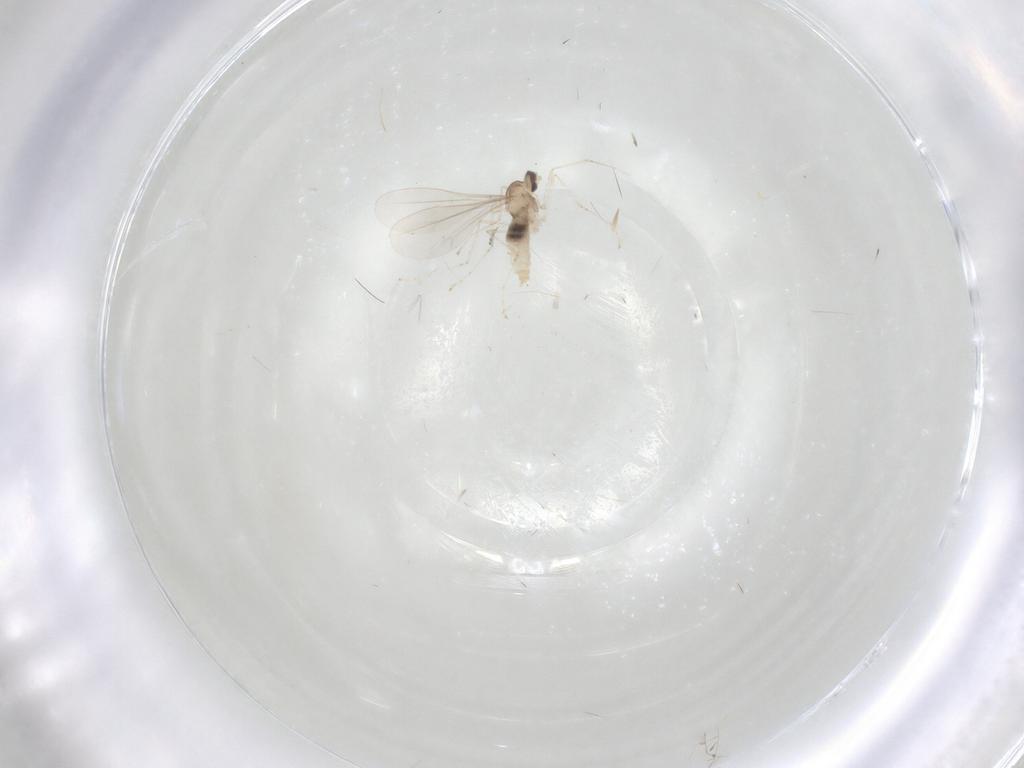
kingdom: Animalia
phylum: Arthropoda
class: Insecta
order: Diptera
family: Cecidomyiidae
